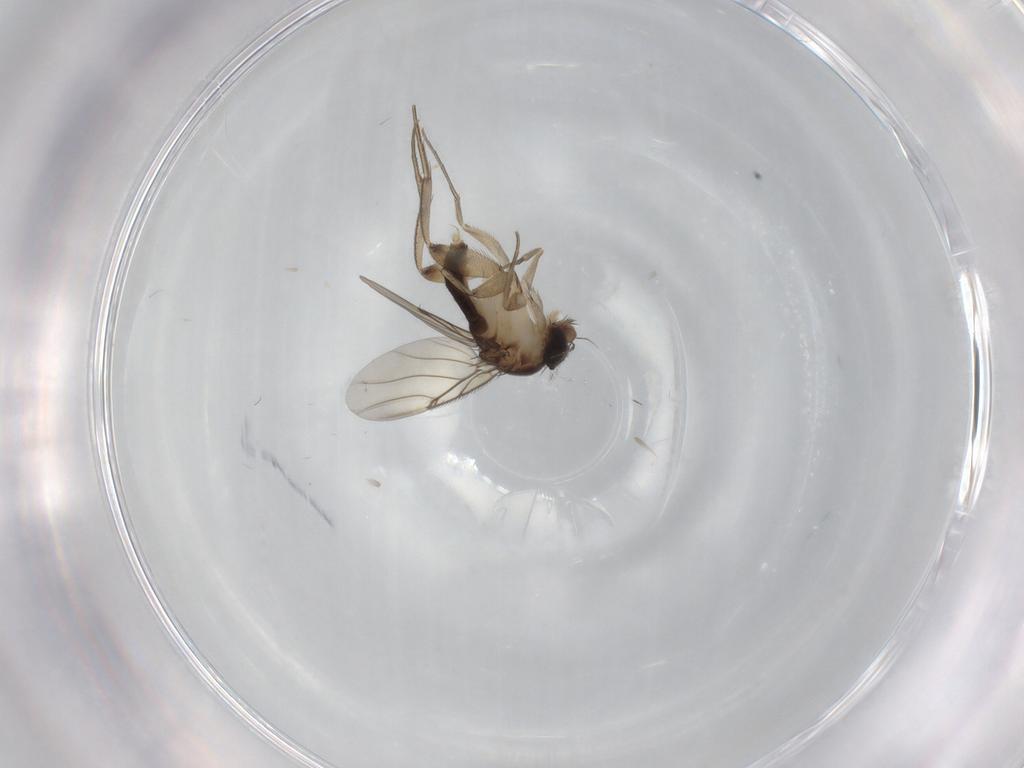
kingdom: Animalia
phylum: Arthropoda
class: Insecta
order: Diptera
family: Phoridae
